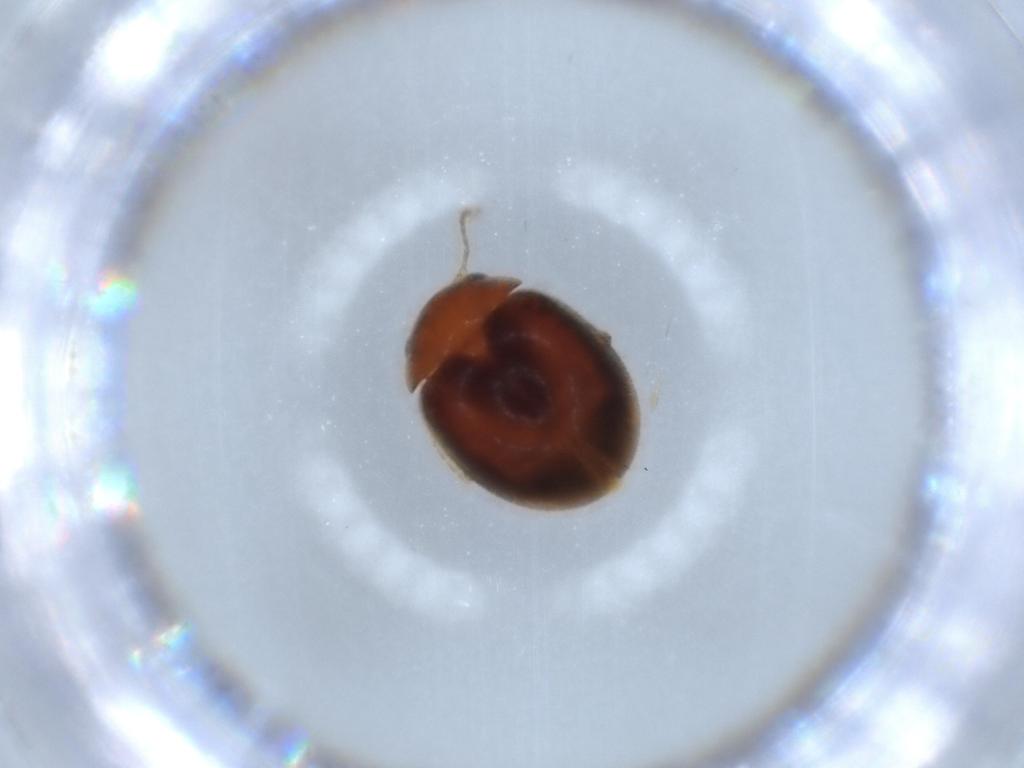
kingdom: Animalia
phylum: Arthropoda
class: Insecta
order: Coleoptera
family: Scirtidae
